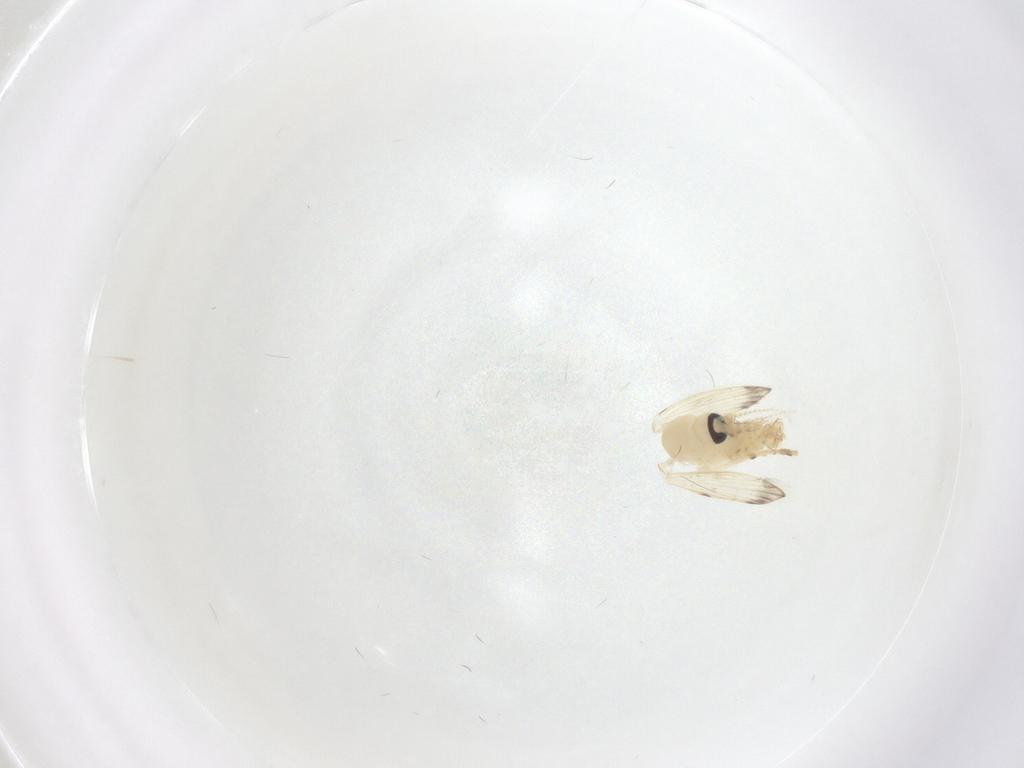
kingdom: Animalia
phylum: Arthropoda
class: Insecta
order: Diptera
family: Psychodidae
